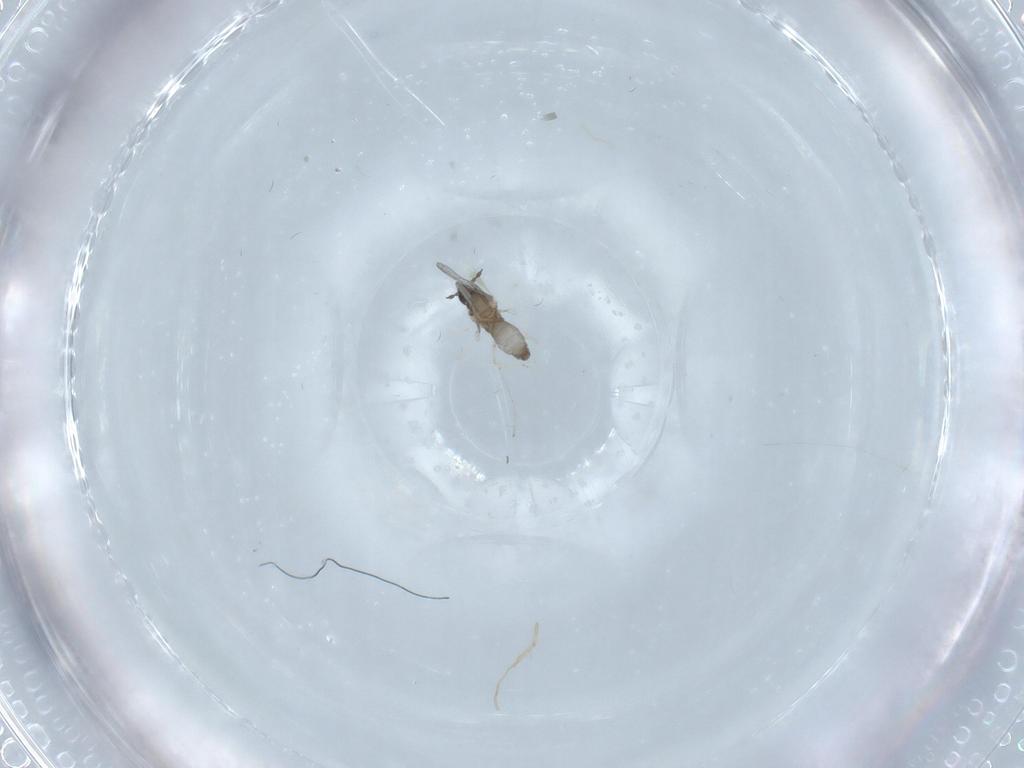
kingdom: Animalia
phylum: Arthropoda
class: Insecta
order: Diptera
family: Cecidomyiidae
